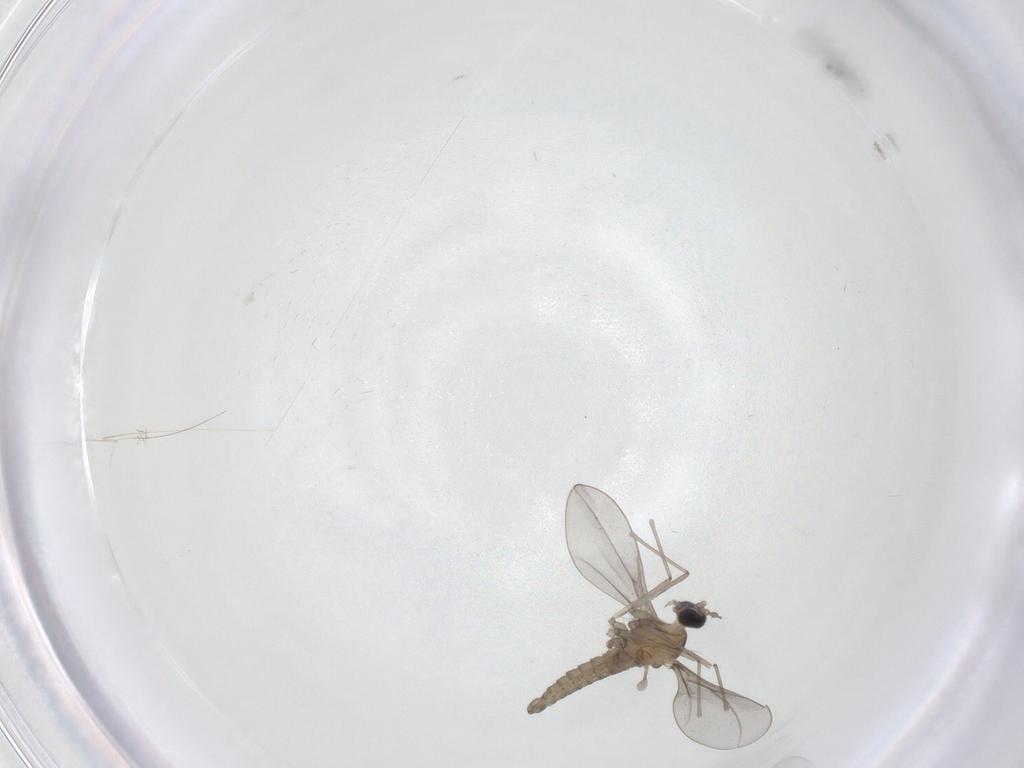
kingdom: Animalia
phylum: Arthropoda
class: Insecta
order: Diptera
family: Cecidomyiidae
